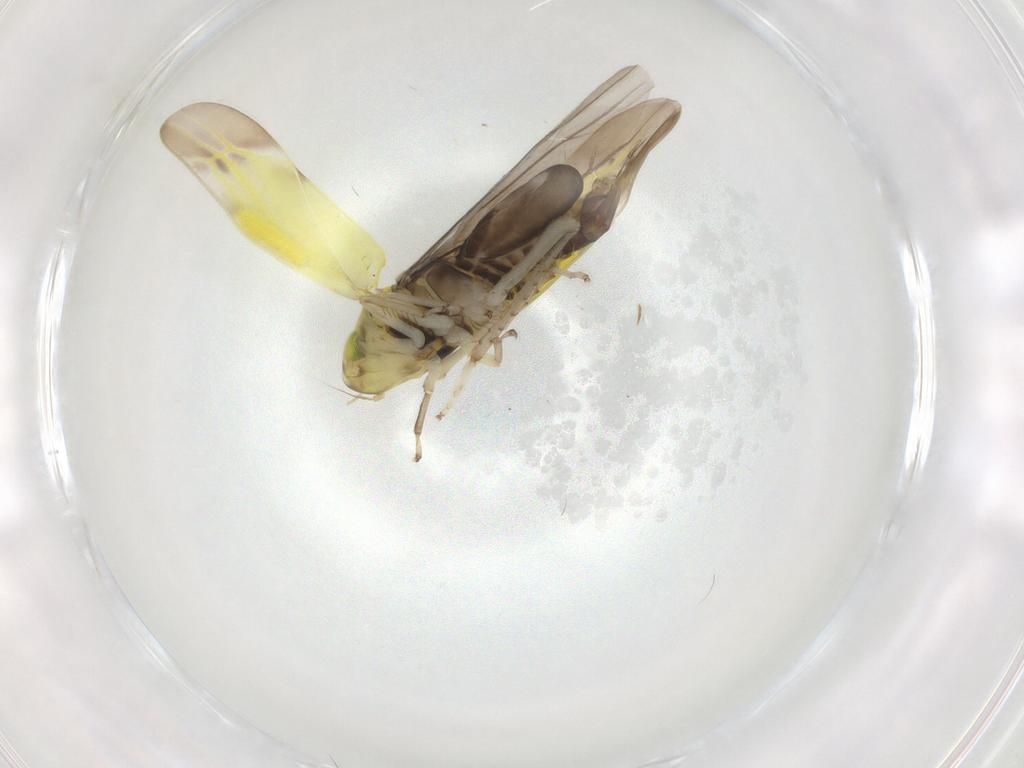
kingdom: Animalia
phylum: Arthropoda
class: Insecta
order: Hemiptera
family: Cicadellidae
